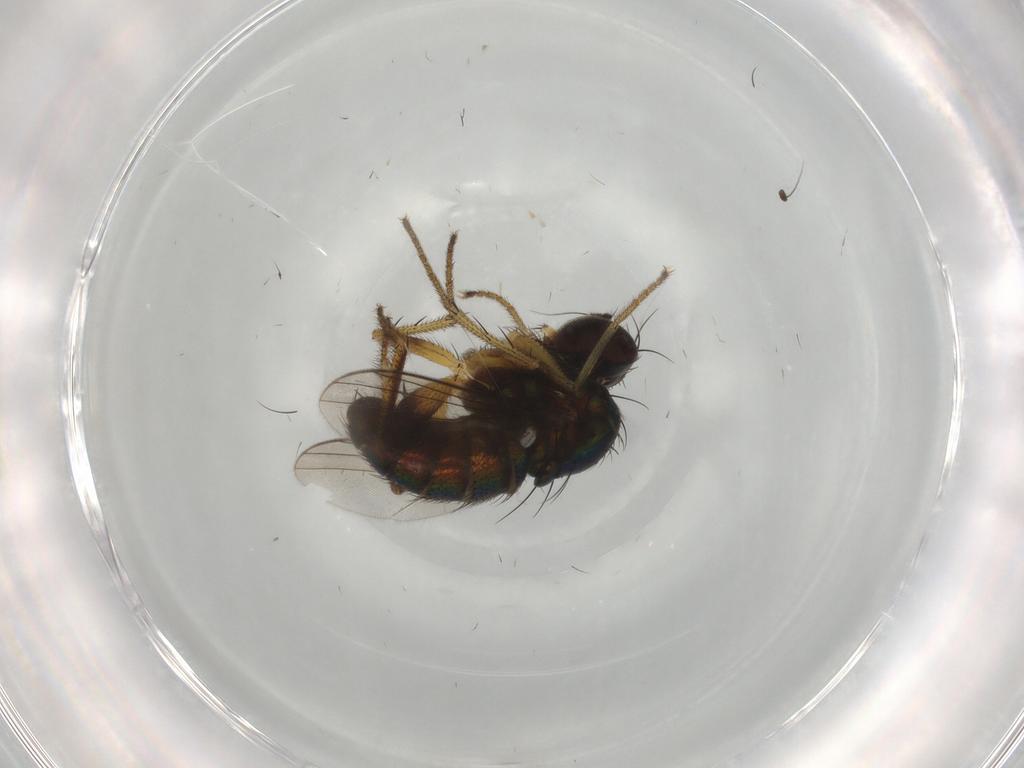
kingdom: Animalia
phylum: Arthropoda
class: Insecta
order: Diptera
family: Dolichopodidae
